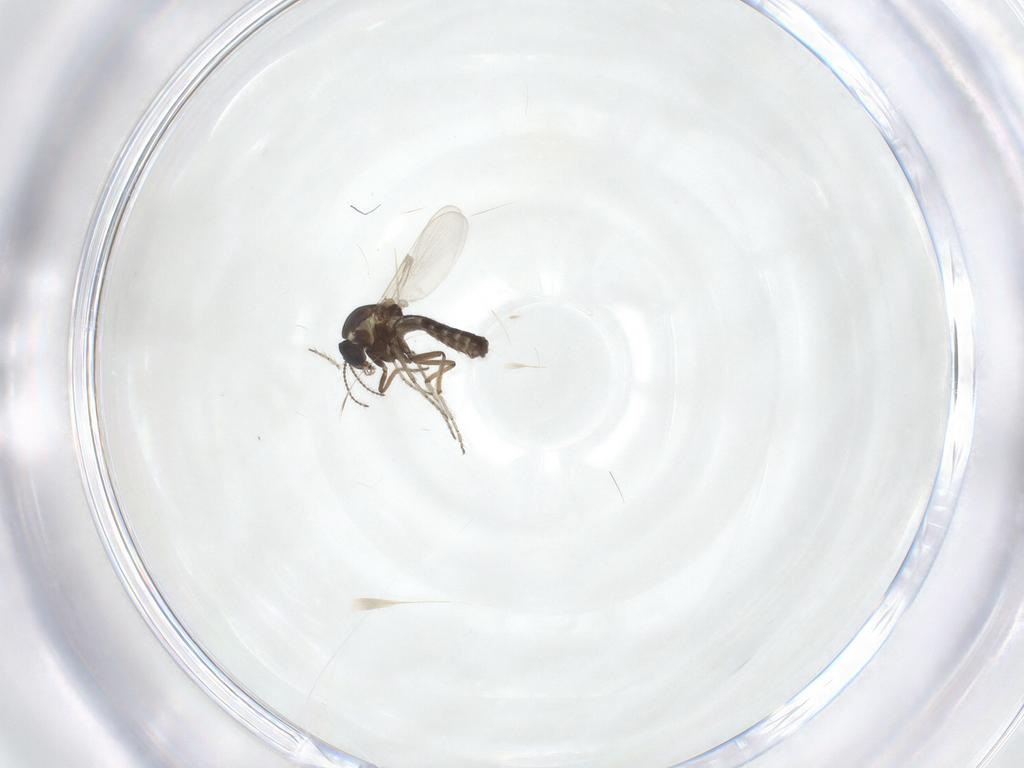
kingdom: Animalia
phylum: Arthropoda
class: Insecta
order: Diptera
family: Ceratopogonidae
